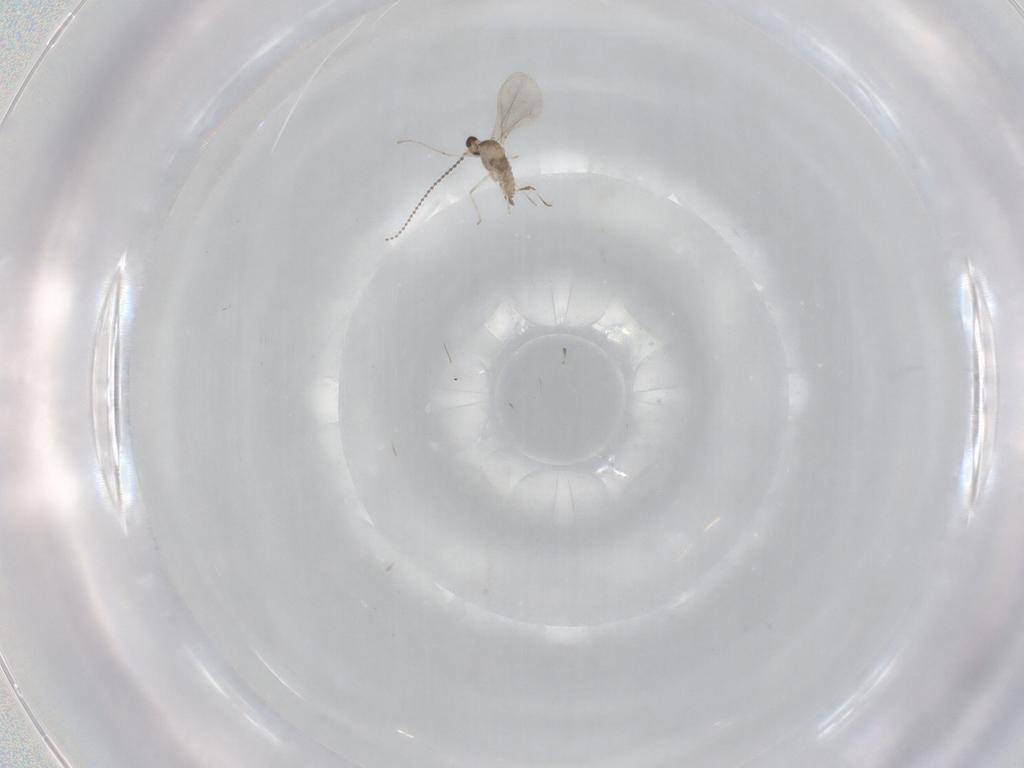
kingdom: Animalia
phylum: Arthropoda
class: Insecta
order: Diptera
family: Cecidomyiidae
